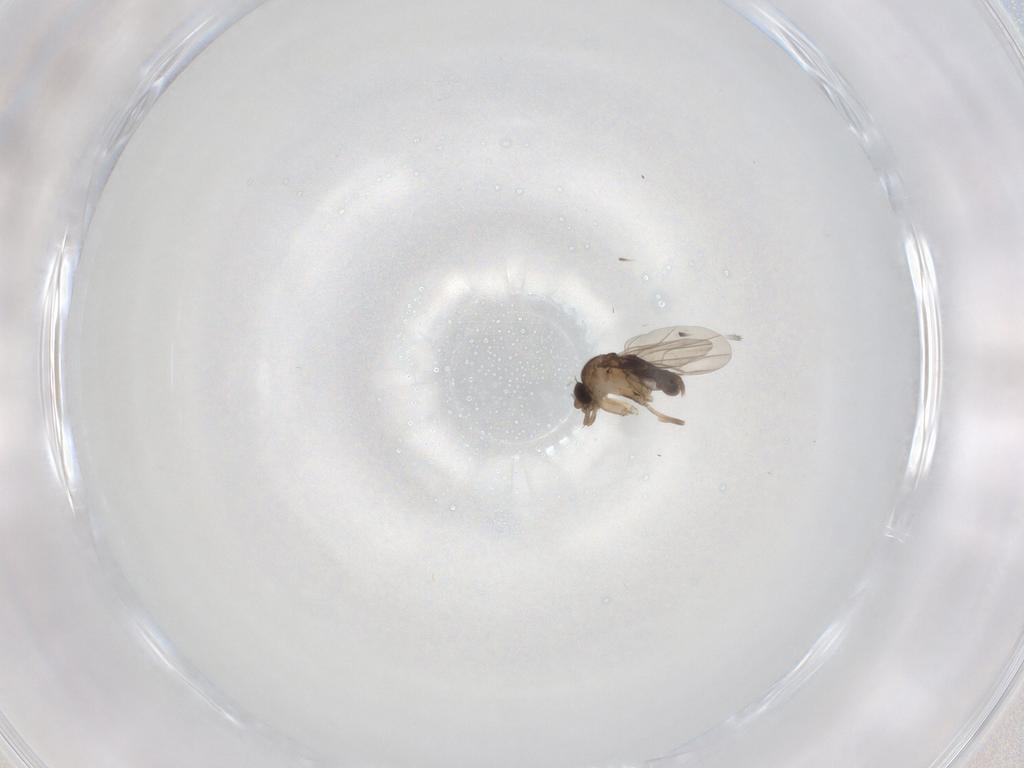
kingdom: Animalia
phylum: Arthropoda
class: Insecta
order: Diptera
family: Phoridae
